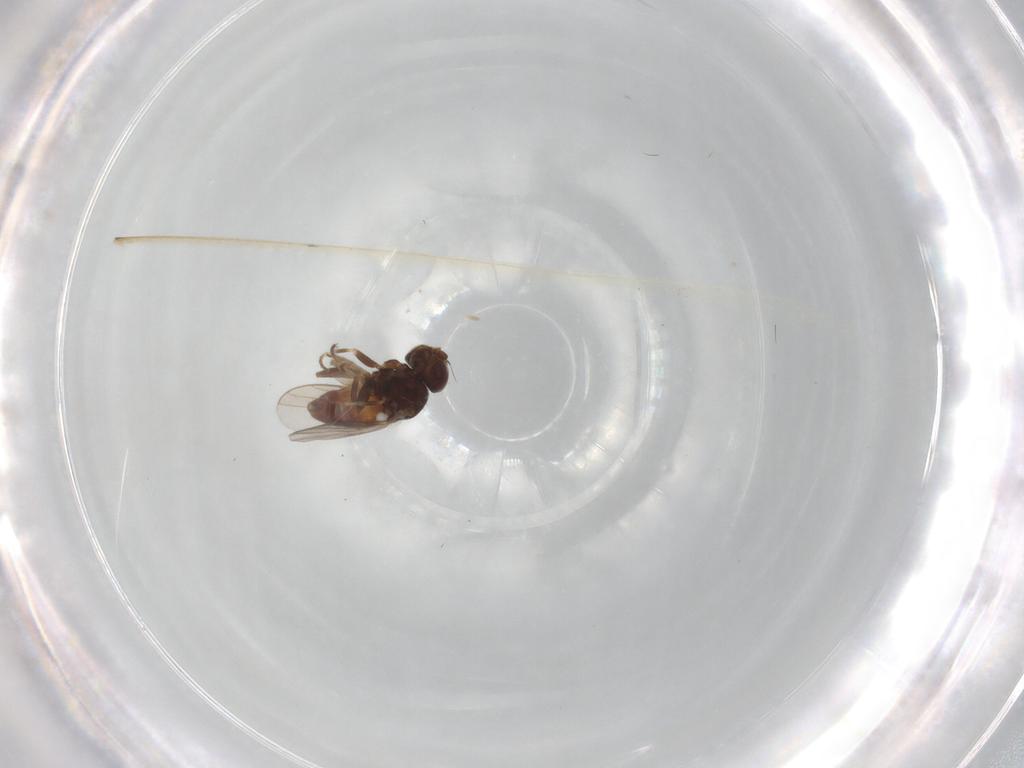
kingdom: Animalia
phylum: Arthropoda
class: Insecta
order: Diptera
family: Chloropidae
